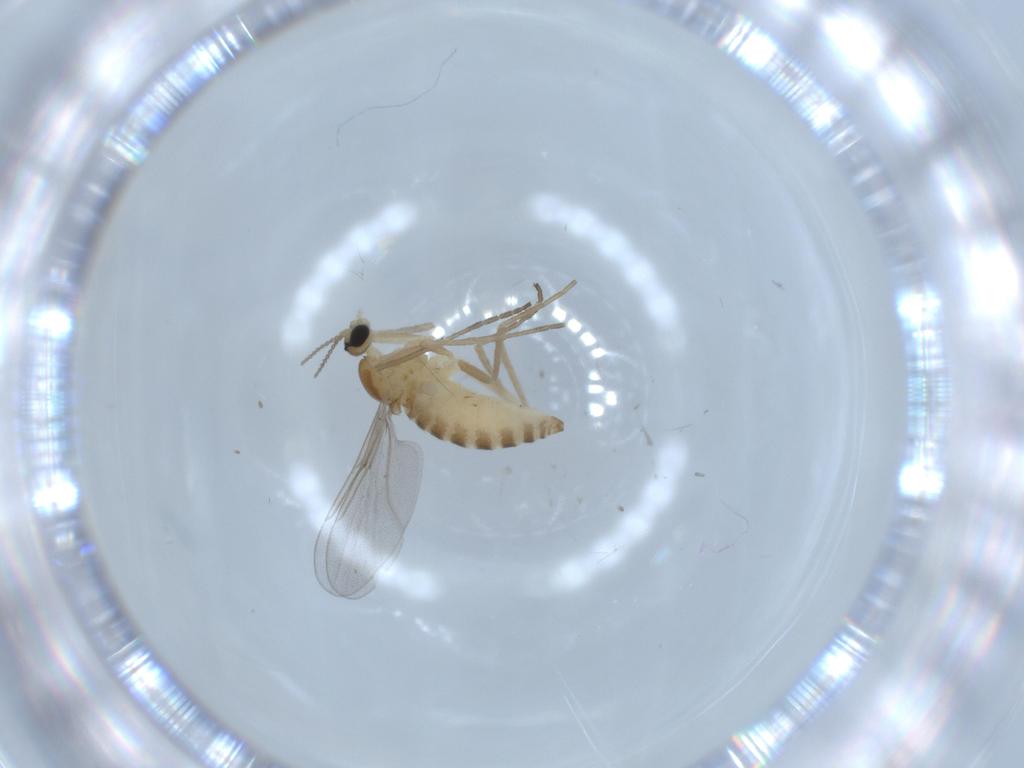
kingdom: Animalia
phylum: Arthropoda
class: Insecta
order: Diptera
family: Cecidomyiidae
